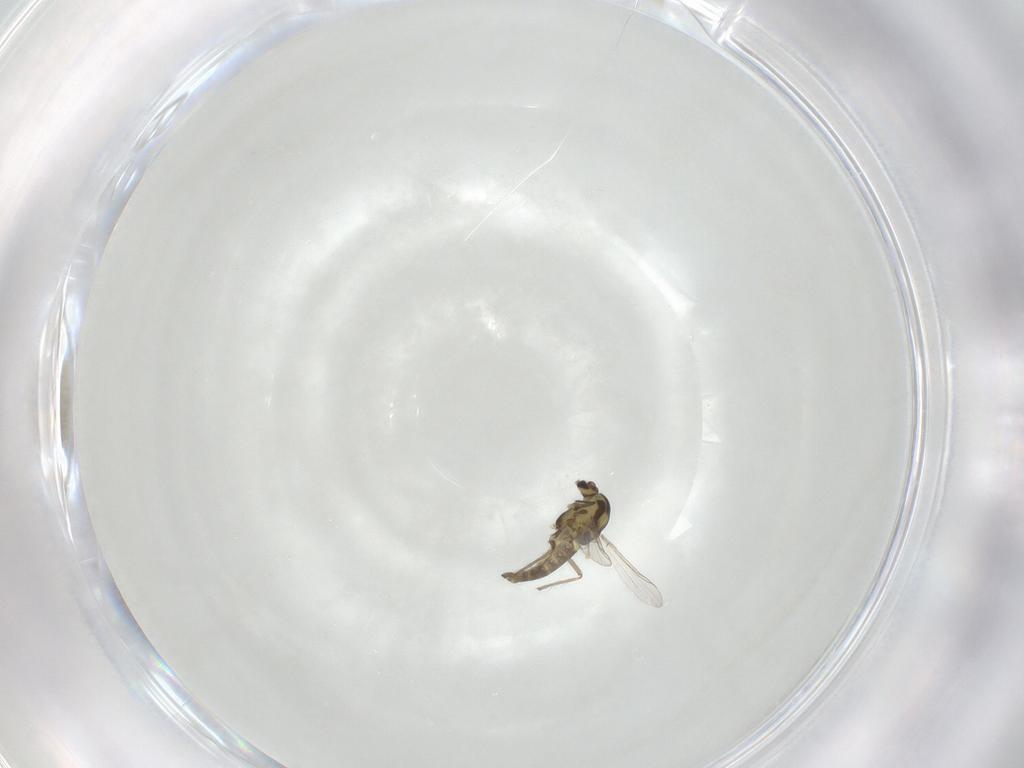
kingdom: Animalia
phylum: Arthropoda
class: Insecta
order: Diptera
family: Chironomidae
